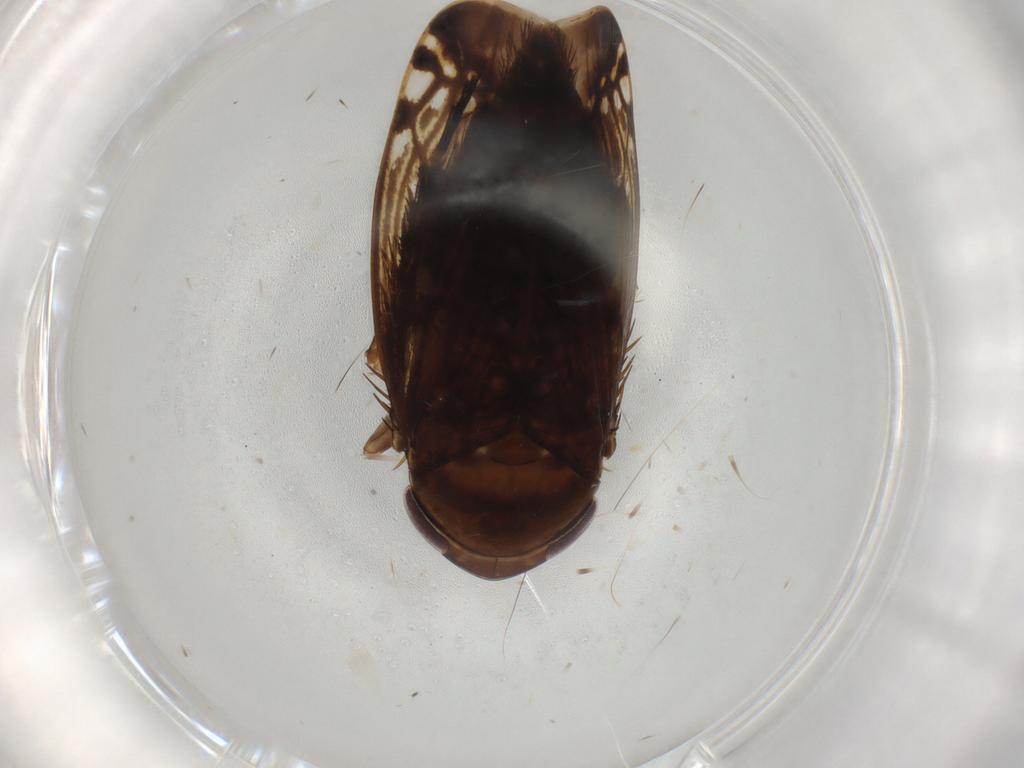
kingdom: Animalia
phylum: Arthropoda
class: Insecta
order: Hemiptera
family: Cicadellidae
